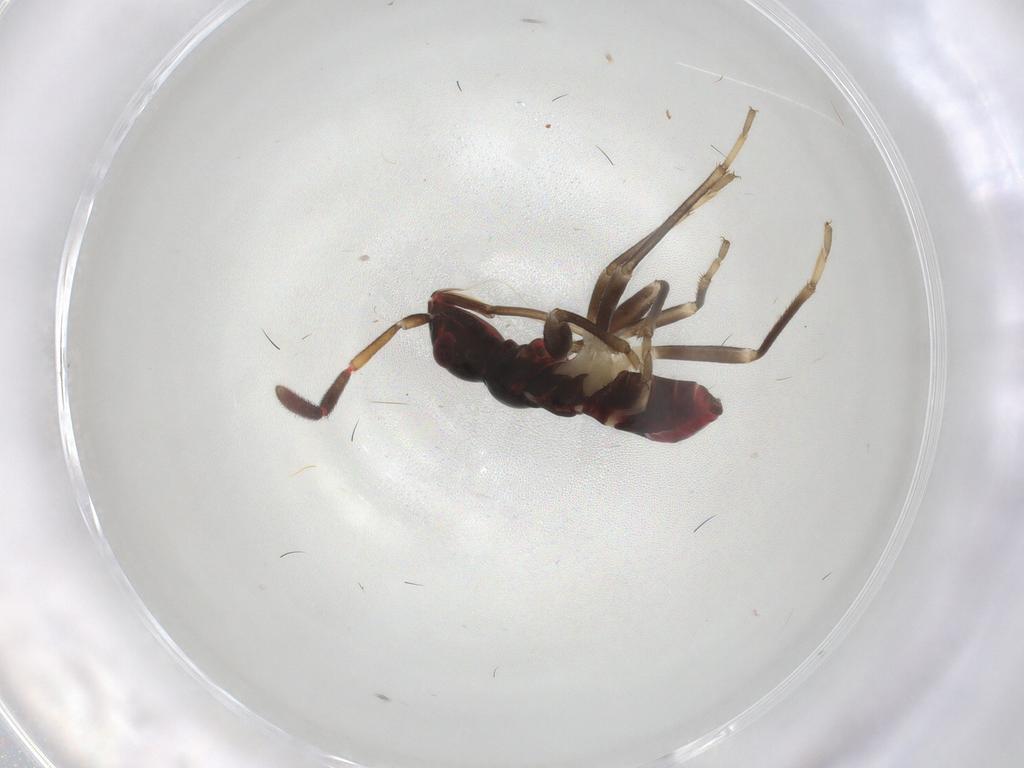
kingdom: Animalia
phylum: Arthropoda
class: Insecta
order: Hemiptera
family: Rhyparochromidae
